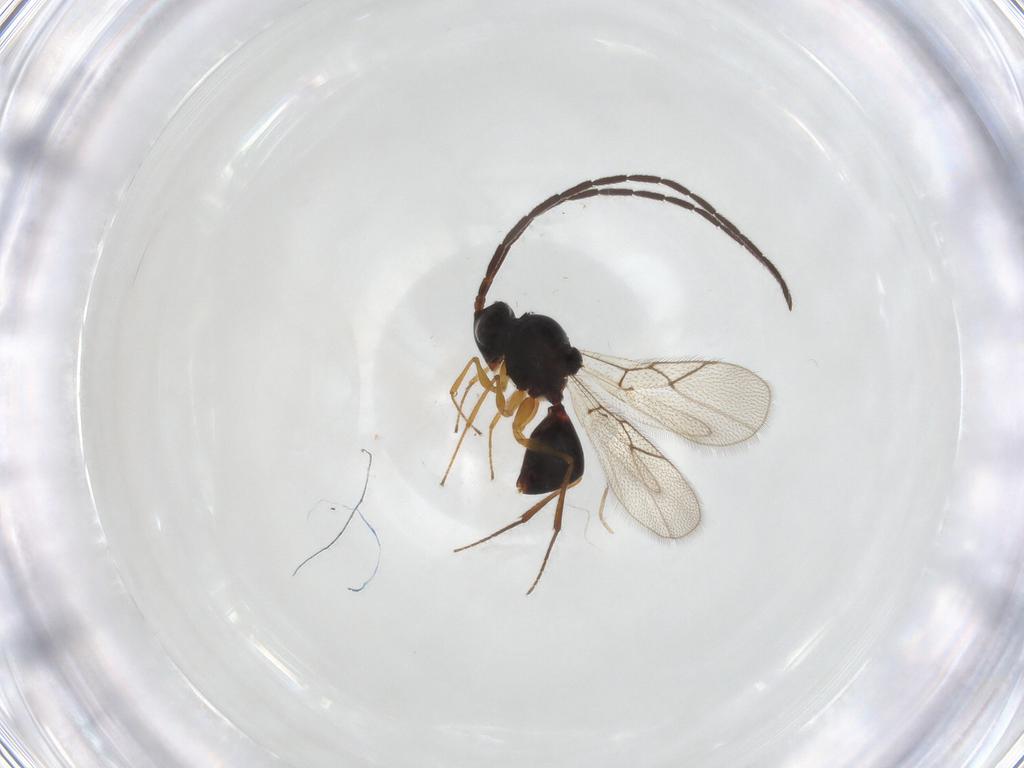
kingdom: Animalia
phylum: Arthropoda
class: Insecta
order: Hymenoptera
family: Figitidae
